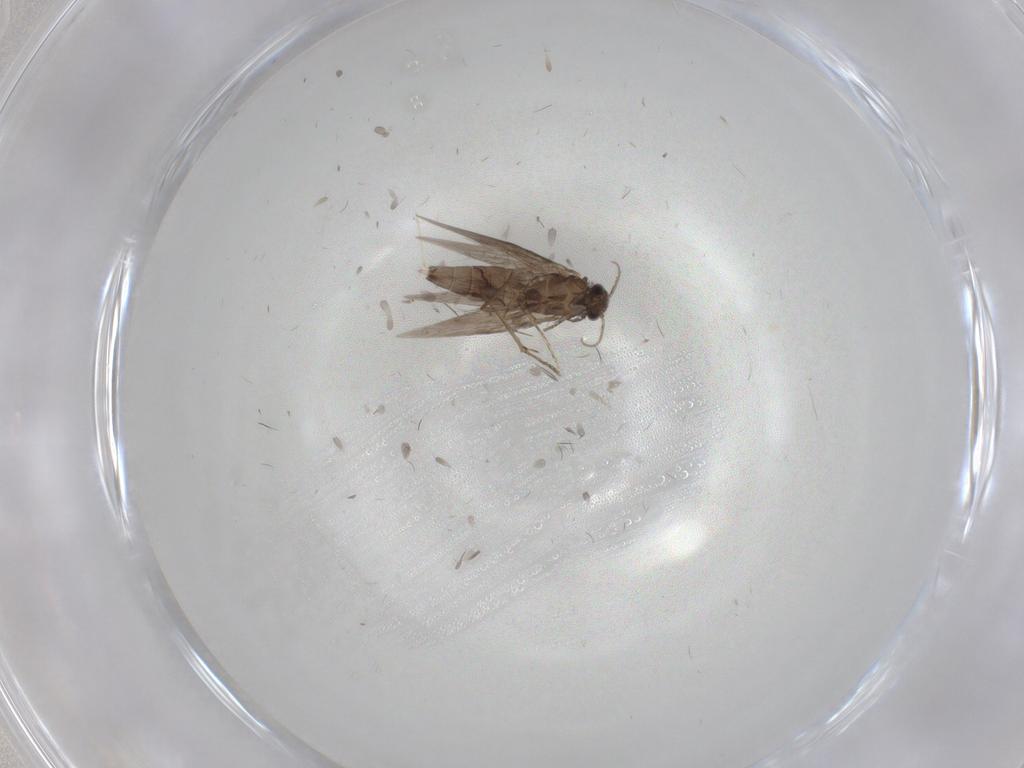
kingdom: Animalia
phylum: Arthropoda
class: Insecta
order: Trichoptera
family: Hydroptilidae
